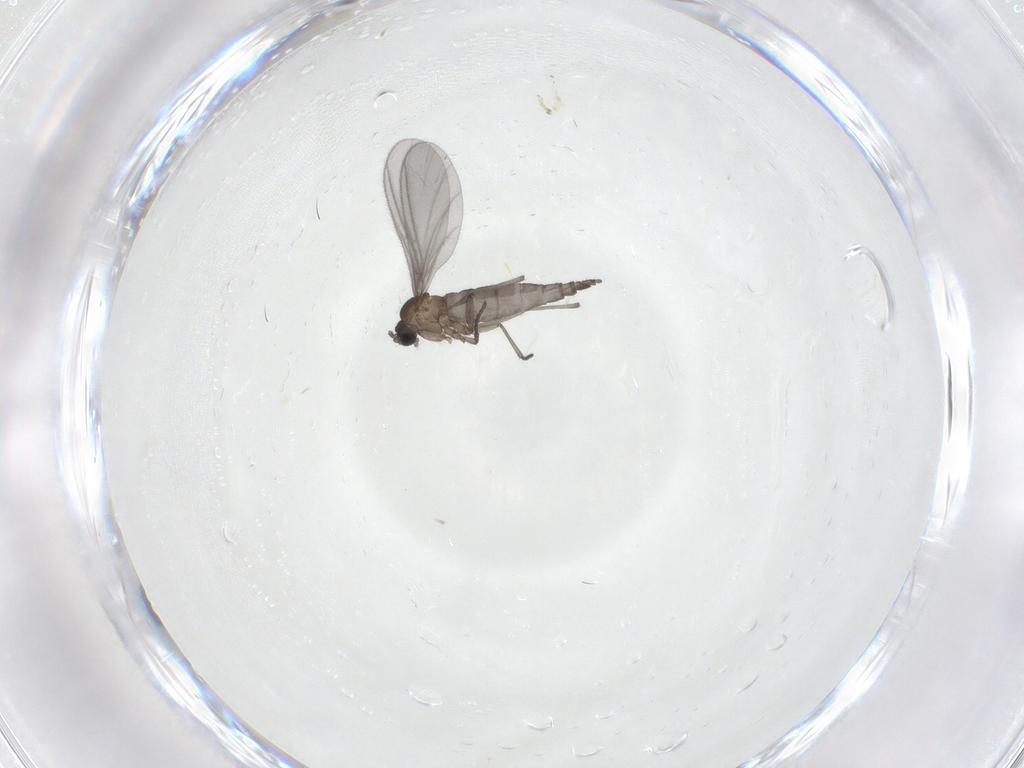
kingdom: Animalia
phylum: Arthropoda
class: Insecta
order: Diptera
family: Sciaridae
